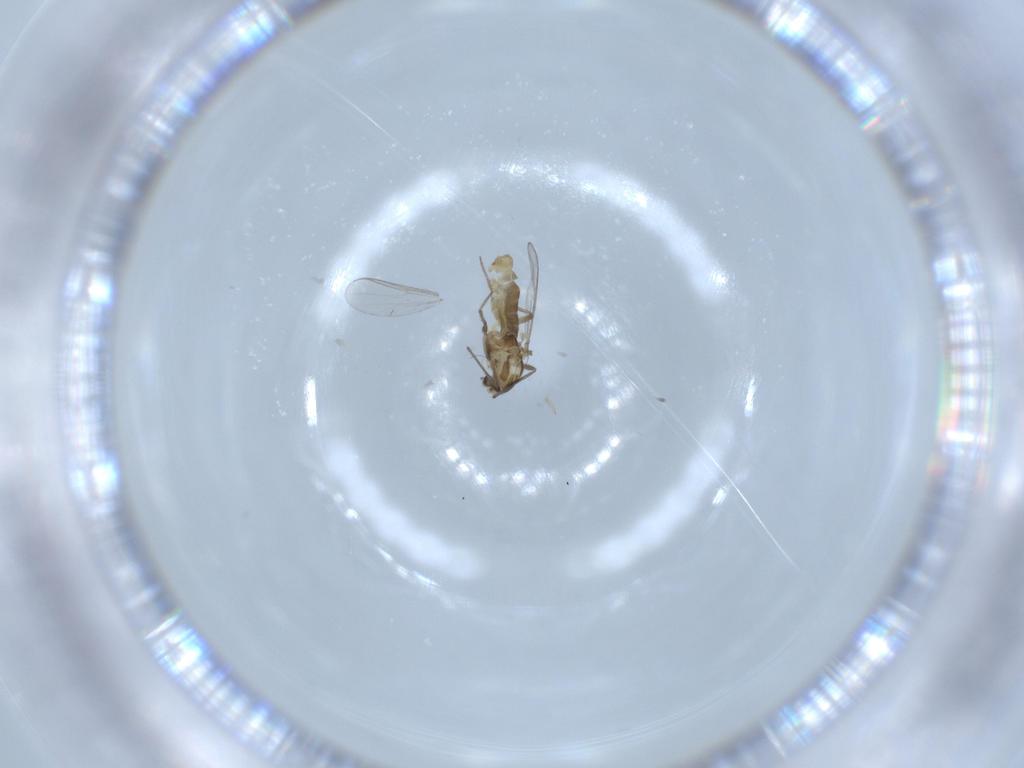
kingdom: Animalia
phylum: Arthropoda
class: Insecta
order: Diptera
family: Chironomidae
